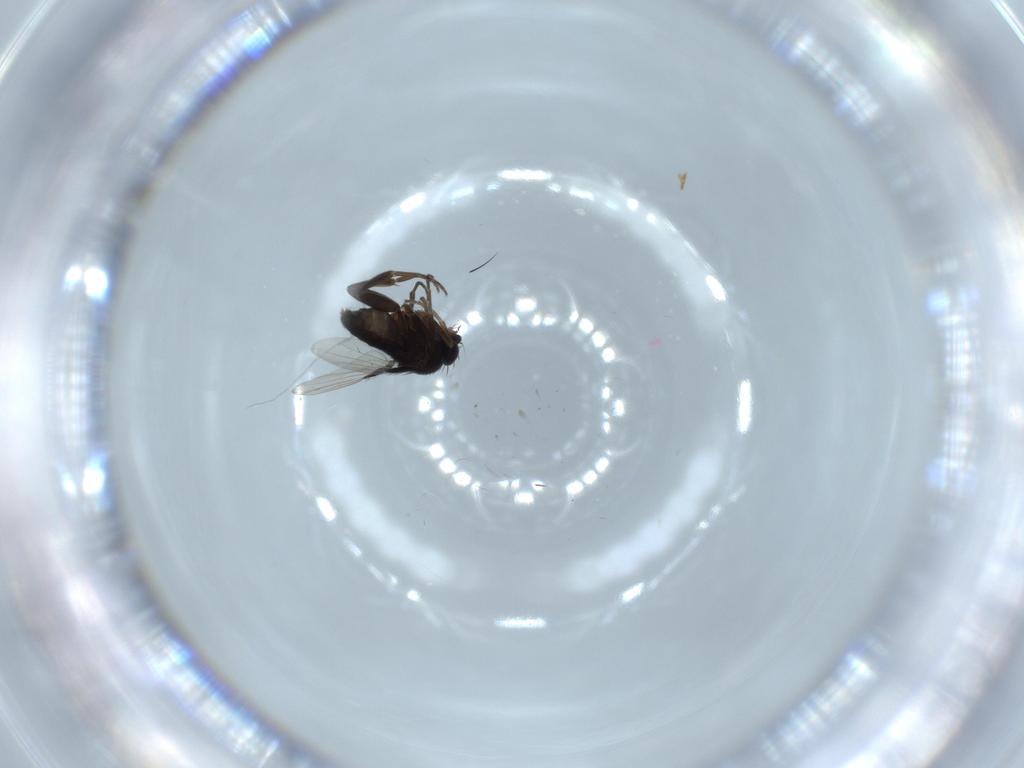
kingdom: Animalia
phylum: Arthropoda
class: Insecta
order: Diptera
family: Phoridae
